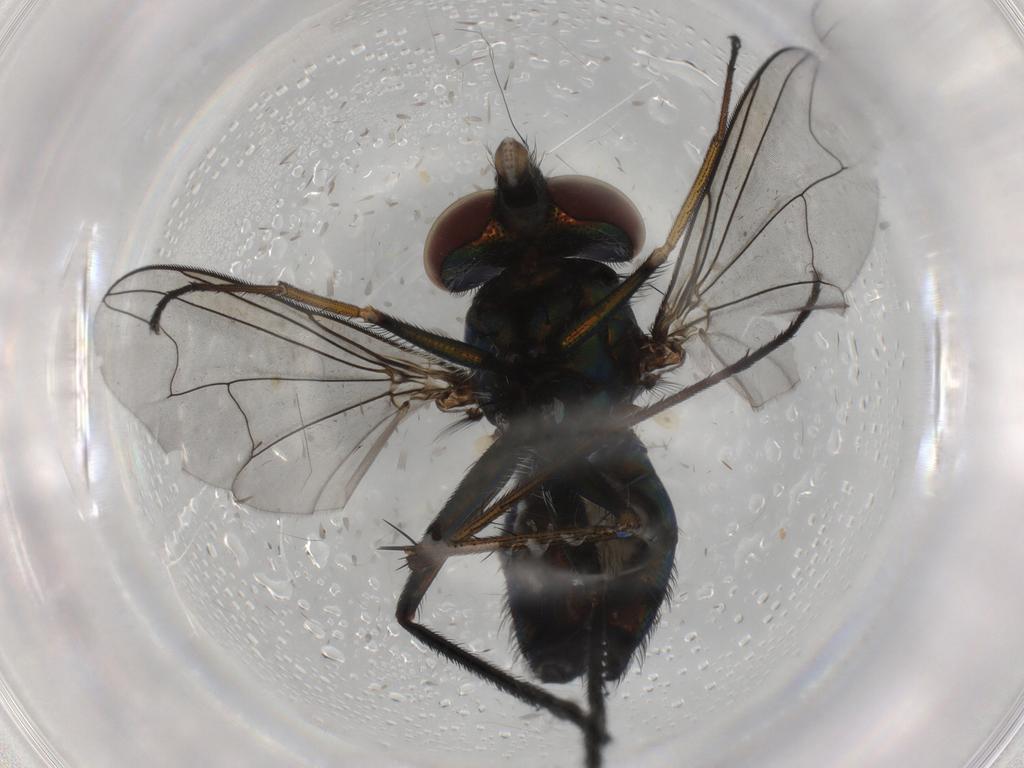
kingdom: Animalia
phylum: Arthropoda
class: Insecta
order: Diptera
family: Dolichopodidae
